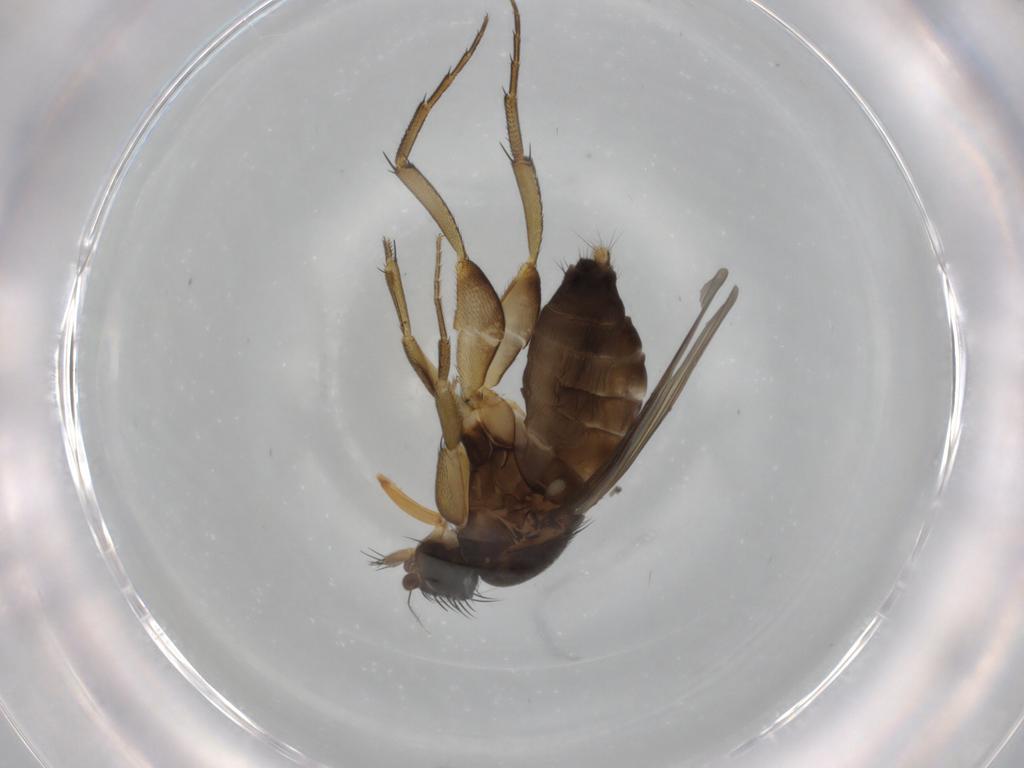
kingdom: Animalia
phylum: Arthropoda
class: Insecta
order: Diptera
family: Phoridae
